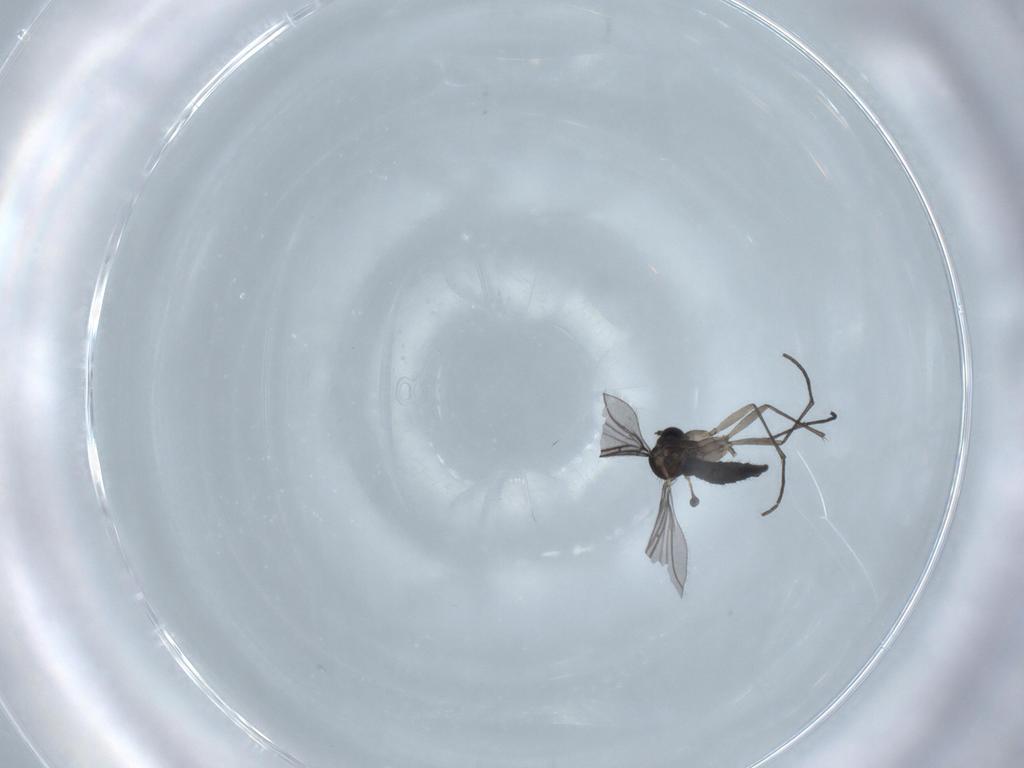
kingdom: Animalia
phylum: Arthropoda
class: Insecta
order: Diptera
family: Sciaridae
